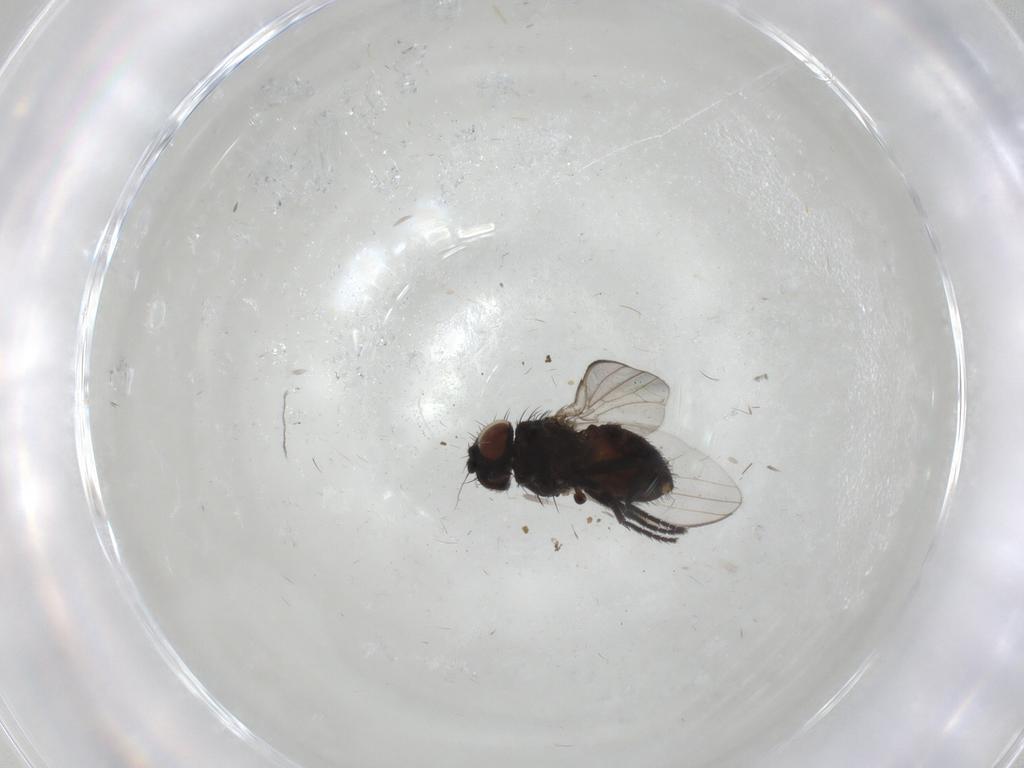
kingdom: Animalia
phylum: Arthropoda
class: Insecta
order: Diptera
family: Milichiidae
